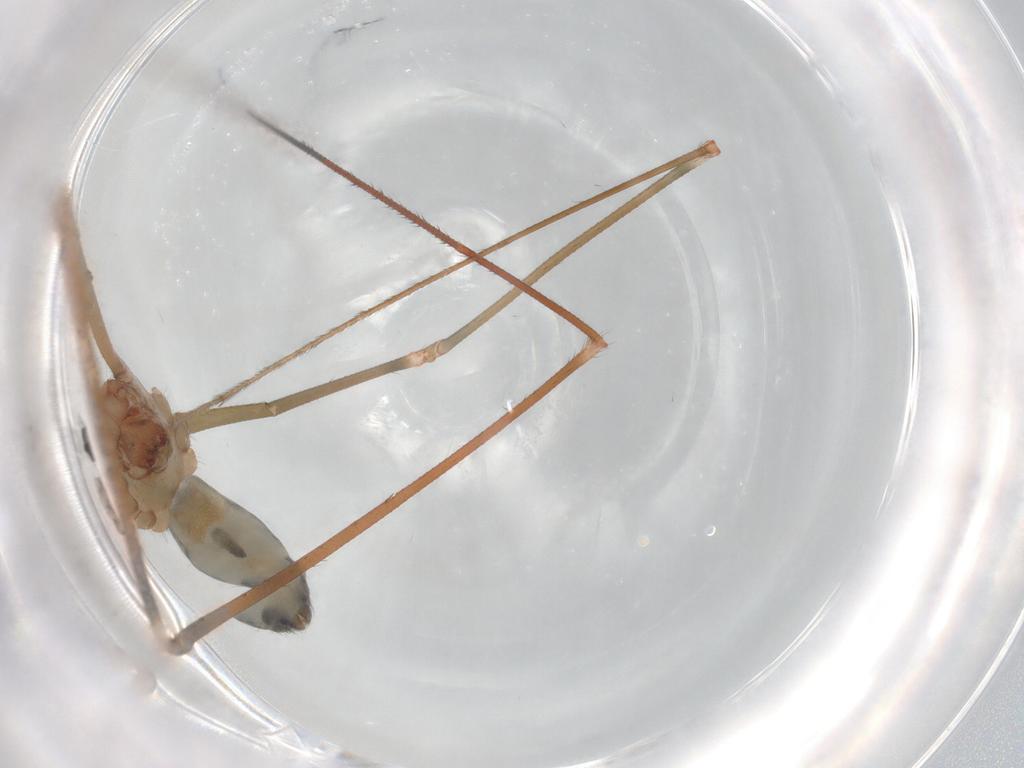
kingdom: Animalia
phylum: Arthropoda
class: Arachnida
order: Araneae
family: Pholcidae
